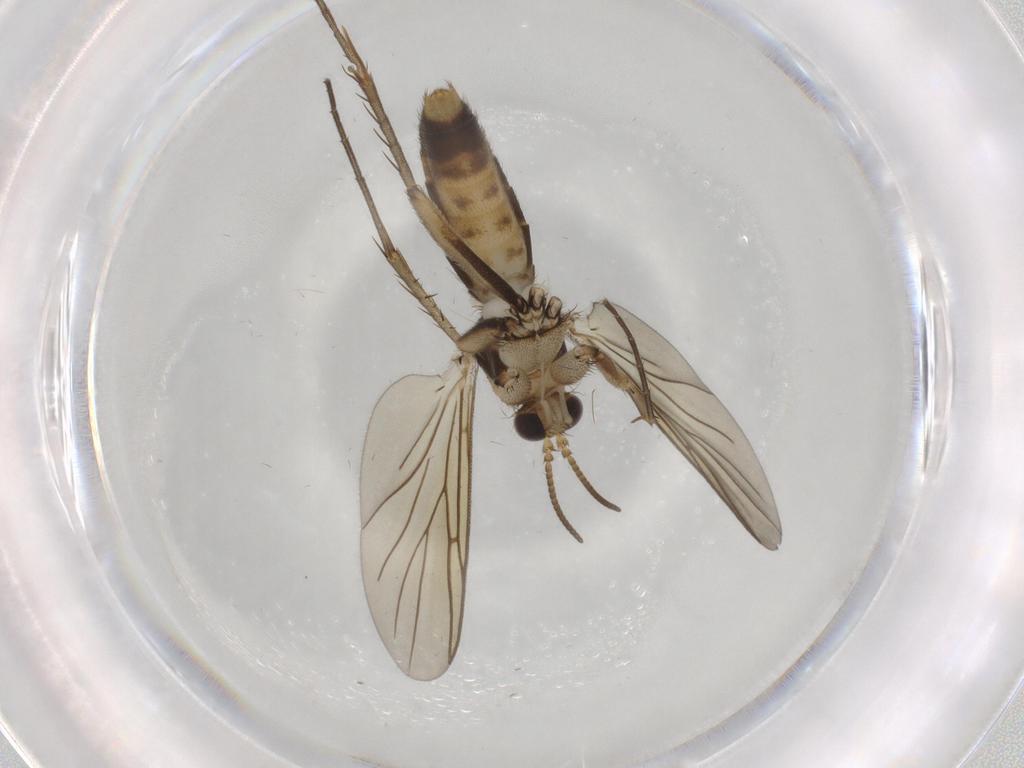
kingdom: Animalia
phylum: Arthropoda
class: Insecta
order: Diptera
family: Mycetophilidae
